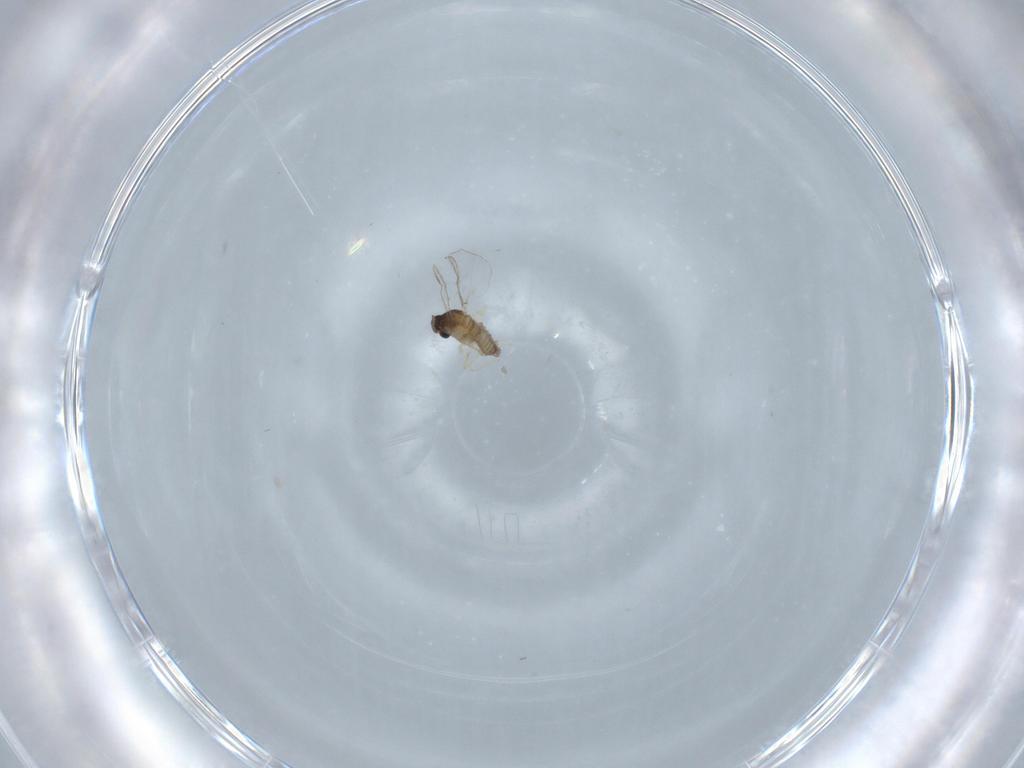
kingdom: Animalia
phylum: Arthropoda
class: Insecta
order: Diptera
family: Cecidomyiidae
